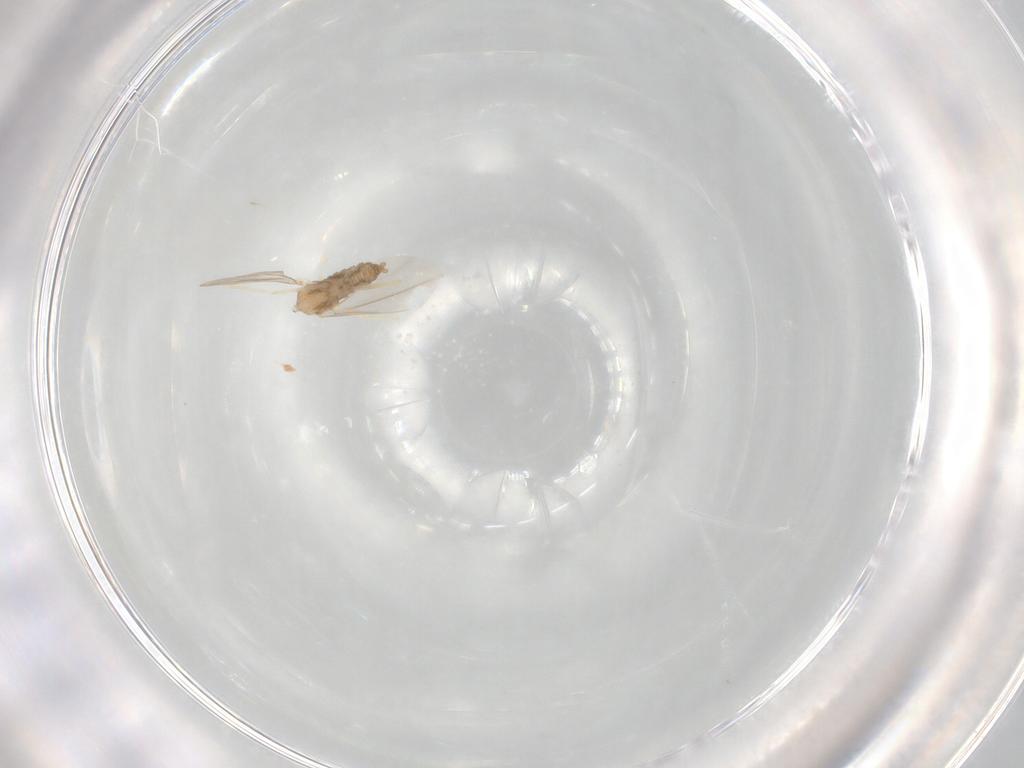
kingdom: Animalia
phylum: Arthropoda
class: Insecta
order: Diptera
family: Cecidomyiidae
